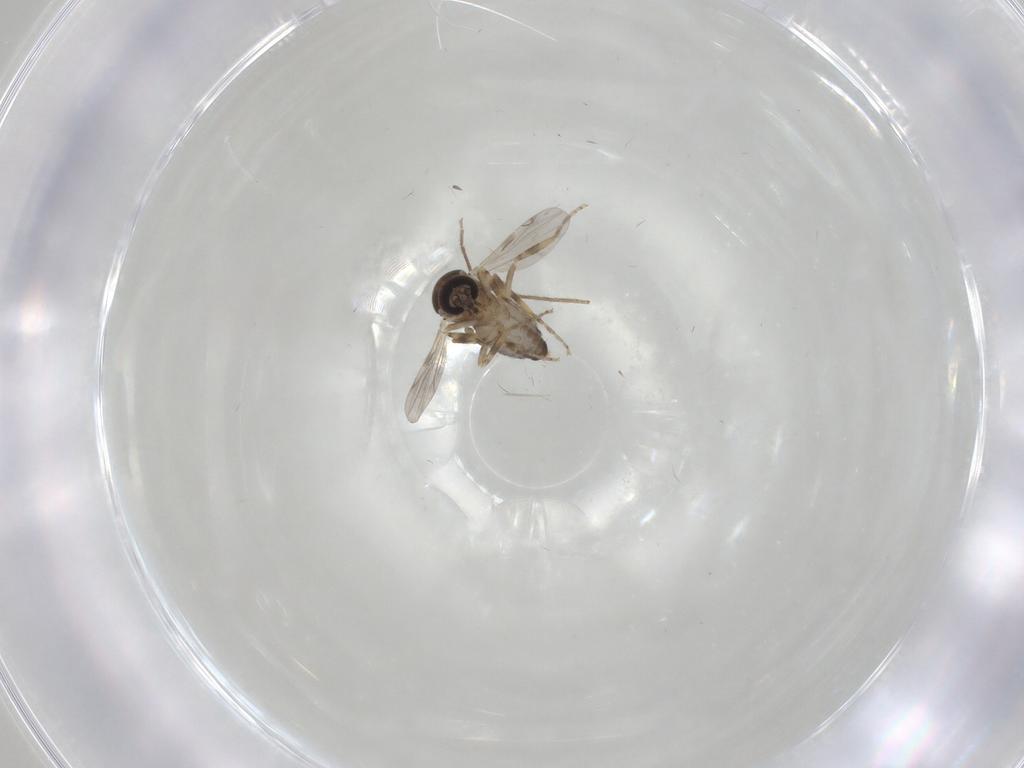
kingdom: Animalia
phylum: Arthropoda
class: Insecta
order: Diptera
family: Ceratopogonidae
